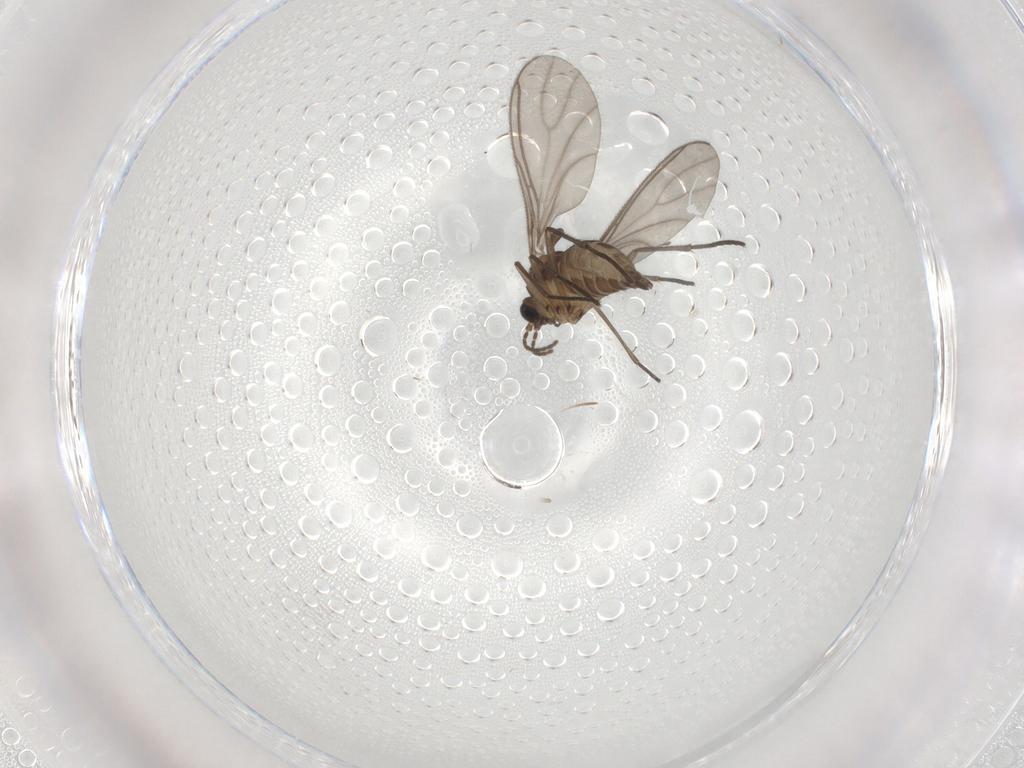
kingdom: Animalia
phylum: Arthropoda
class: Insecta
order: Diptera
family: Sciaridae
